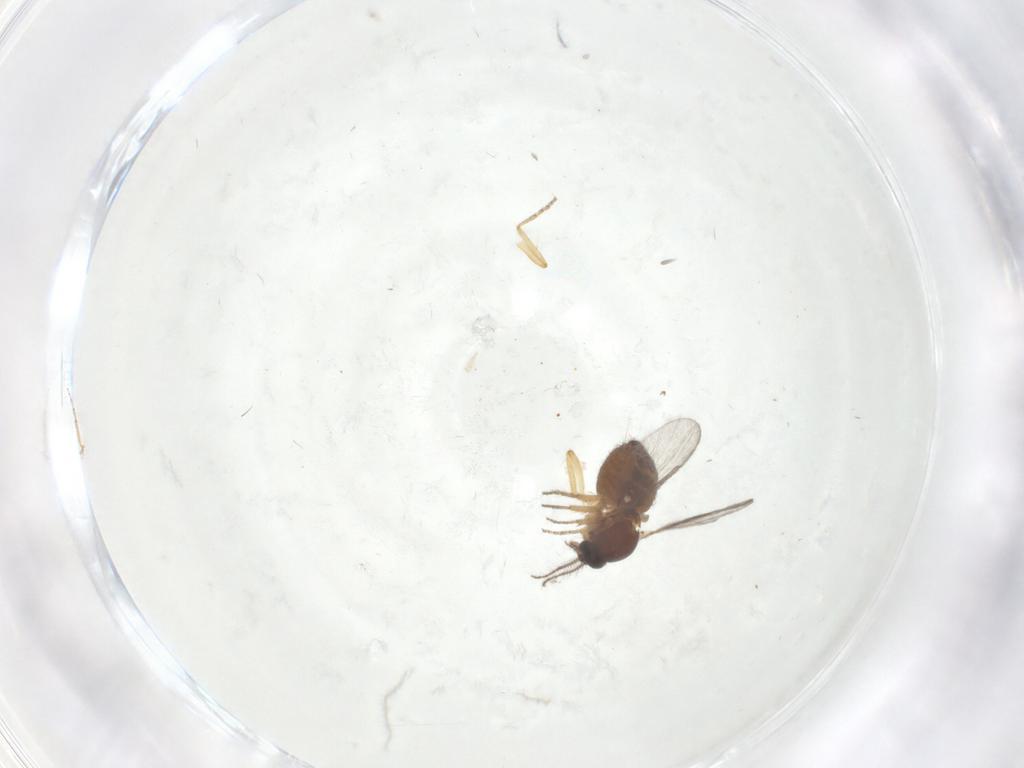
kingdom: Animalia
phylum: Arthropoda
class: Insecta
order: Diptera
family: Ceratopogonidae
